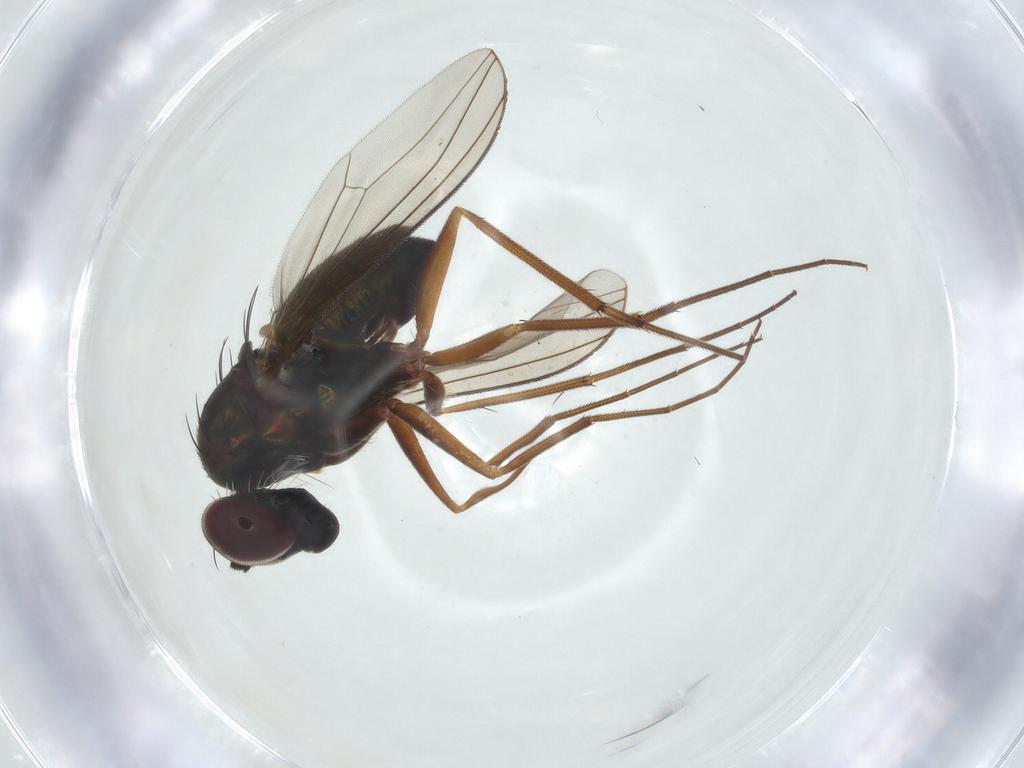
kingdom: Animalia
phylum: Arthropoda
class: Insecta
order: Diptera
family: Dolichopodidae
